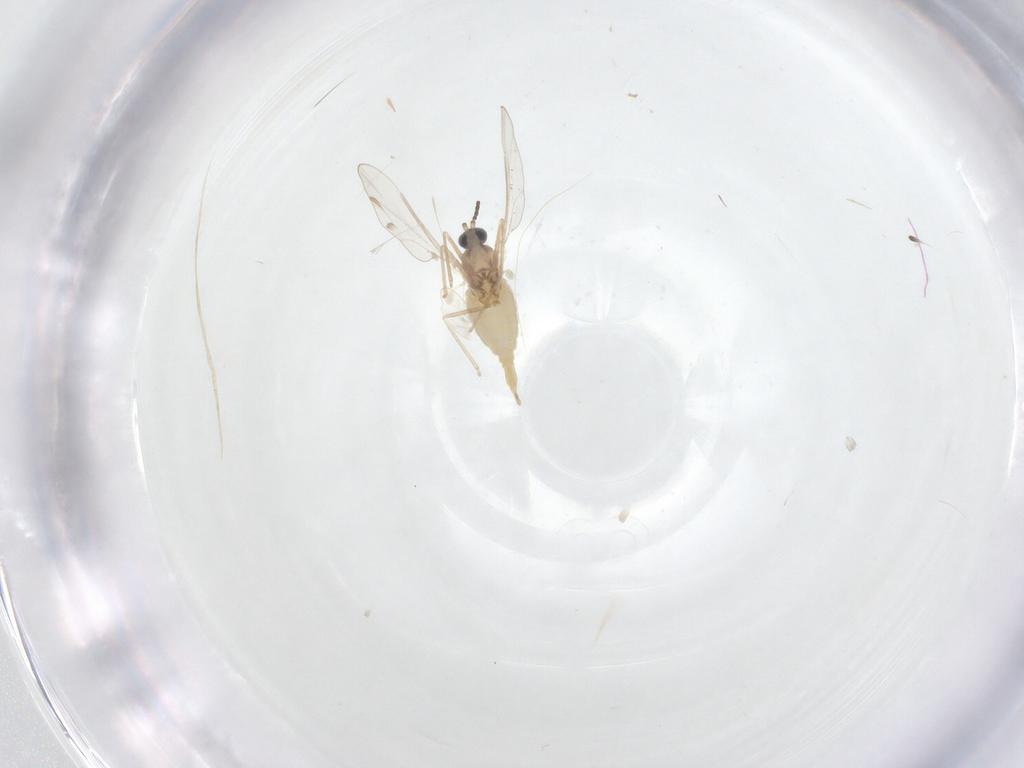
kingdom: Animalia
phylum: Arthropoda
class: Insecta
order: Diptera
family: Cecidomyiidae
